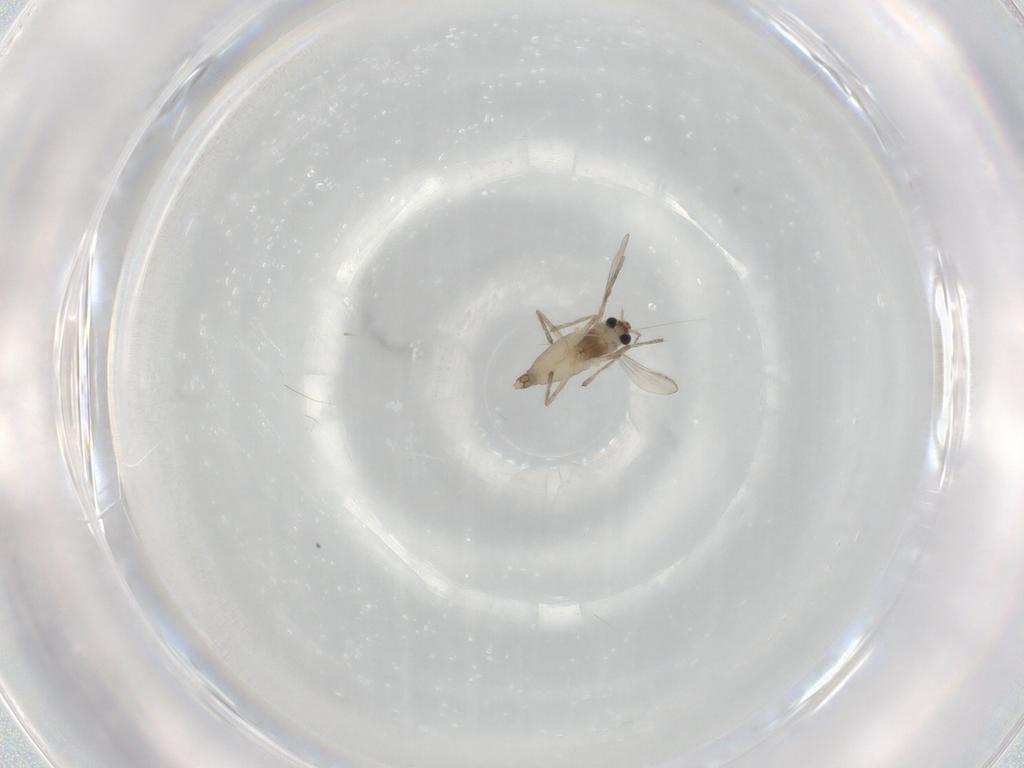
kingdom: Animalia
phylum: Arthropoda
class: Insecta
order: Diptera
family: Chironomidae
